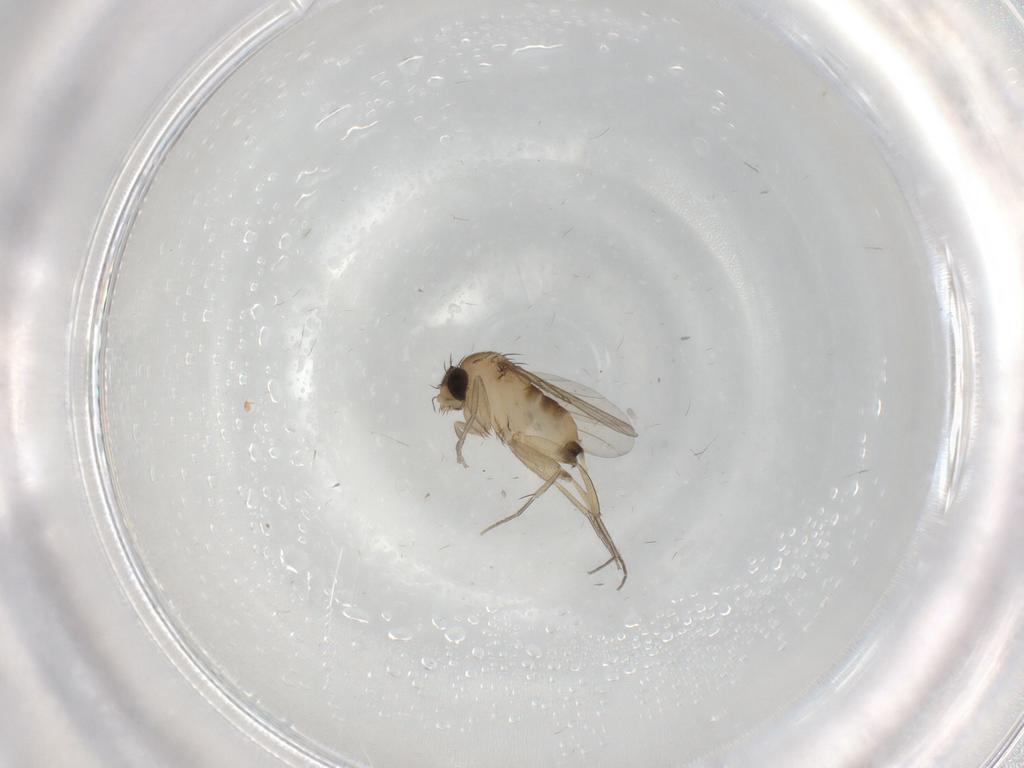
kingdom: Animalia
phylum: Arthropoda
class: Insecta
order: Diptera
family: Phoridae
